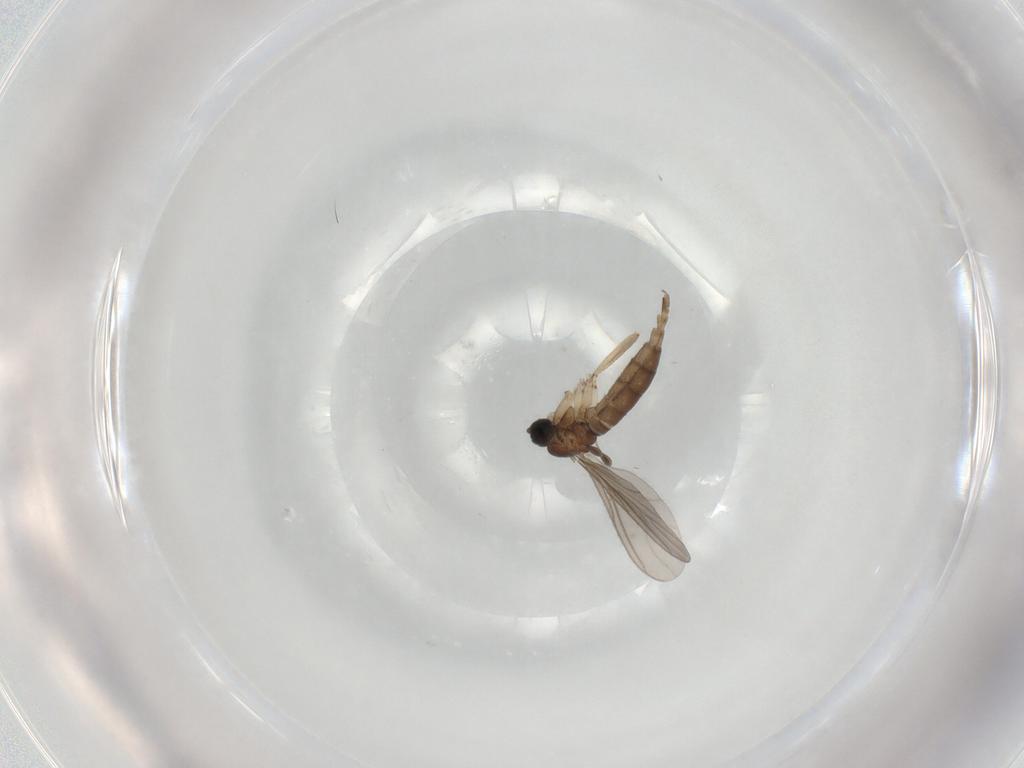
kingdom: Animalia
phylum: Arthropoda
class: Insecta
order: Diptera
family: Sciaridae
